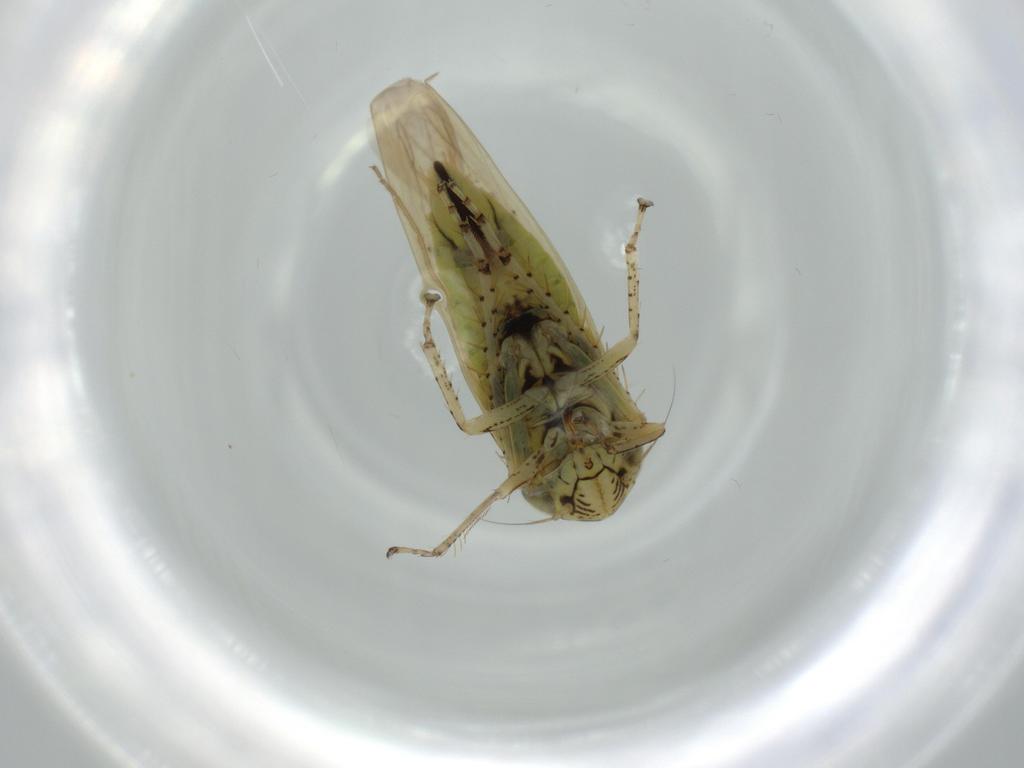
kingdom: Animalia
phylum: Arthropoda
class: Insecta
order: Hemiptera
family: Cicadellidae
